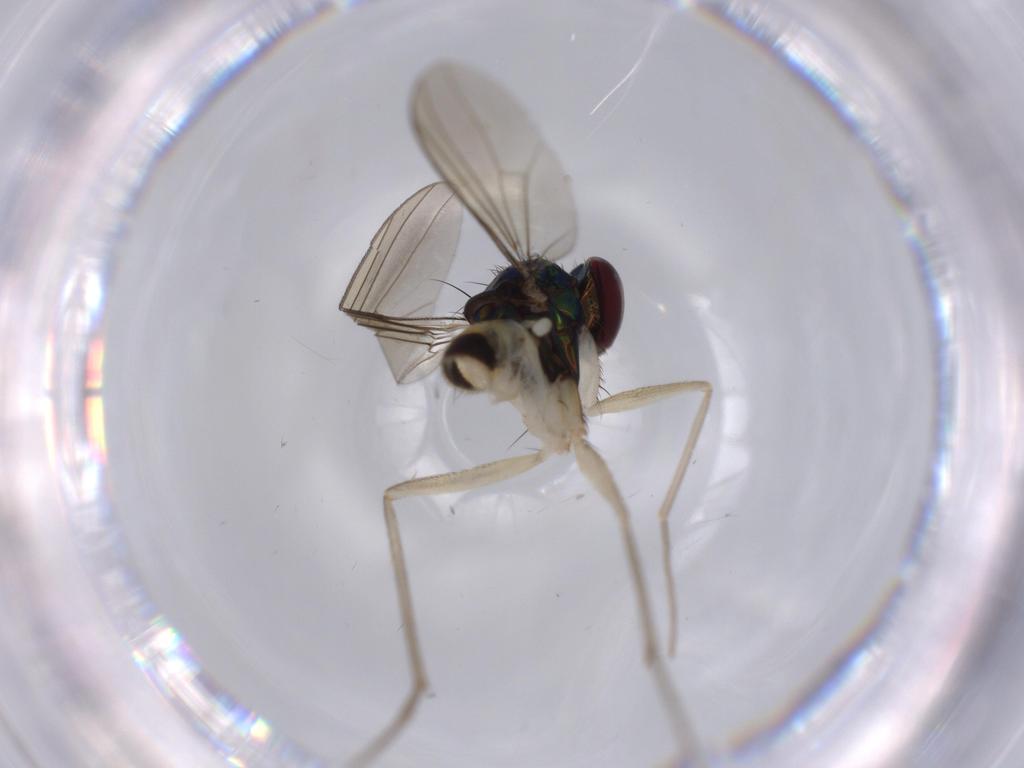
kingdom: Animalia
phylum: Arthropoda
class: Insecta
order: Diptera
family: Dolichopodidae
